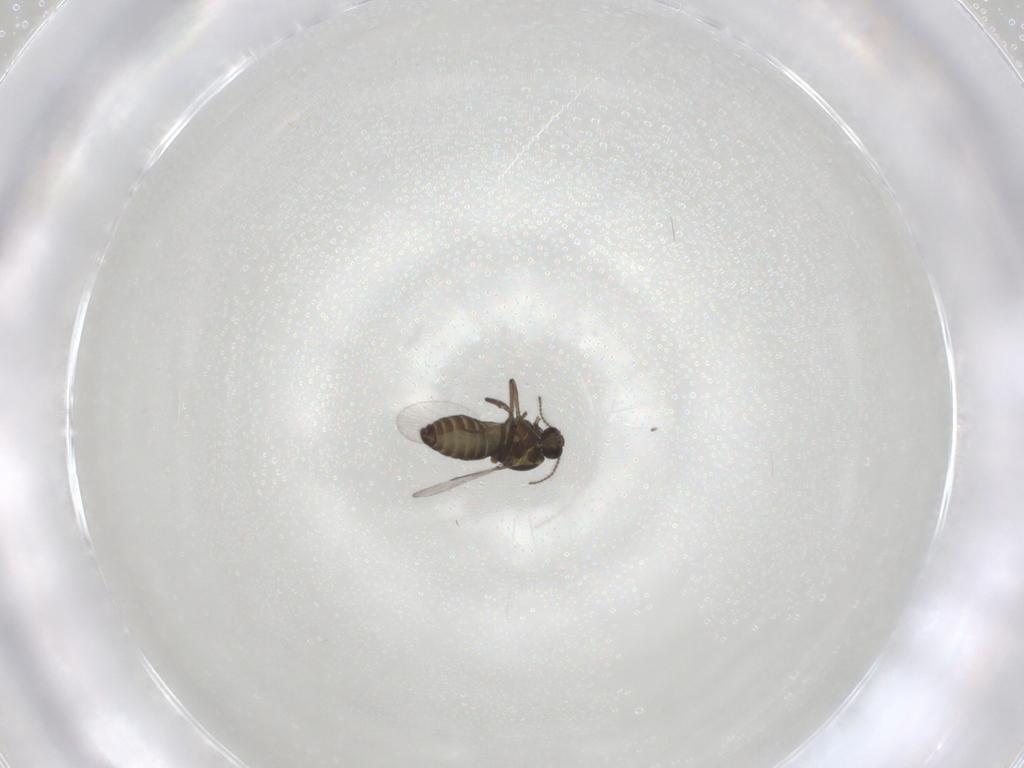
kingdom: Animalia
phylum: Arthropoda
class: Insecta
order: Diptera
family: Ceratopogonidae
